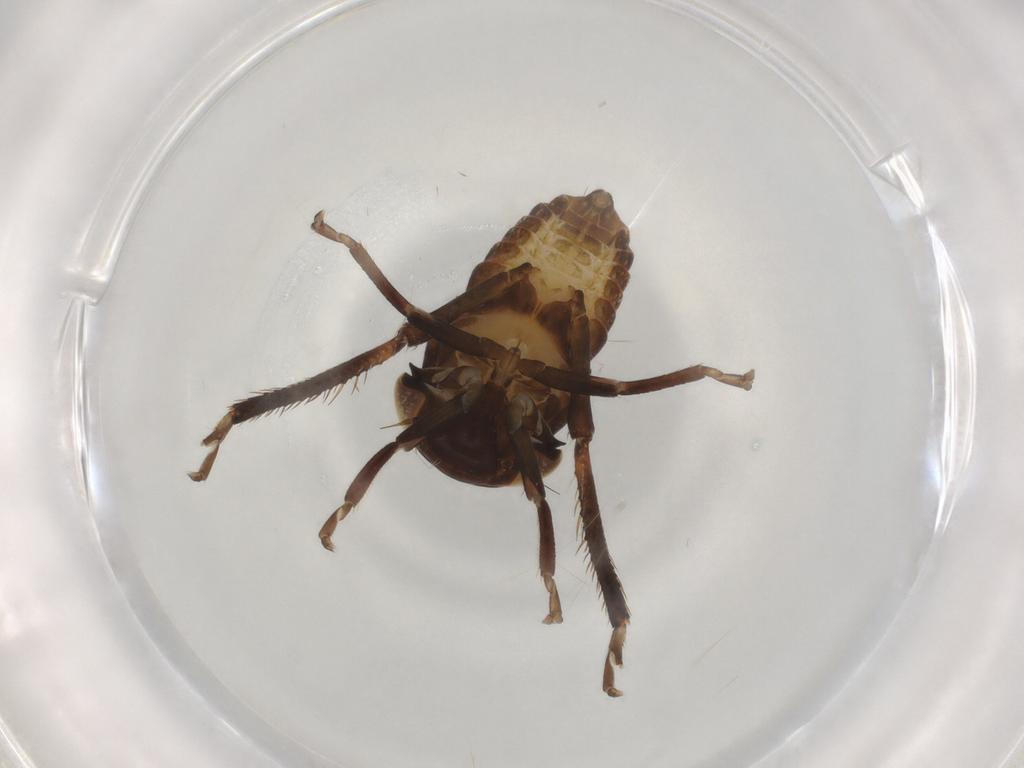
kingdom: Animalia
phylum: Arthropoda
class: Insecta
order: Hemiptera
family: Cicadellidae
